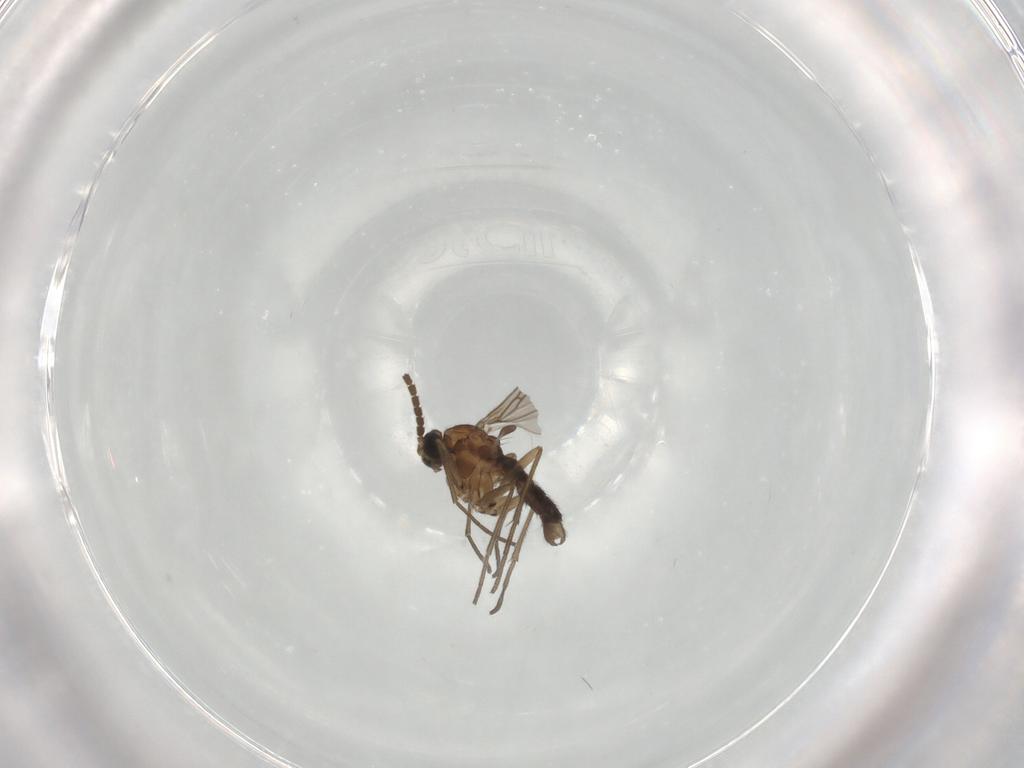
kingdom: Animalia
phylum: Arthropoda
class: Insecta
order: Diptera
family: Sciaridae
